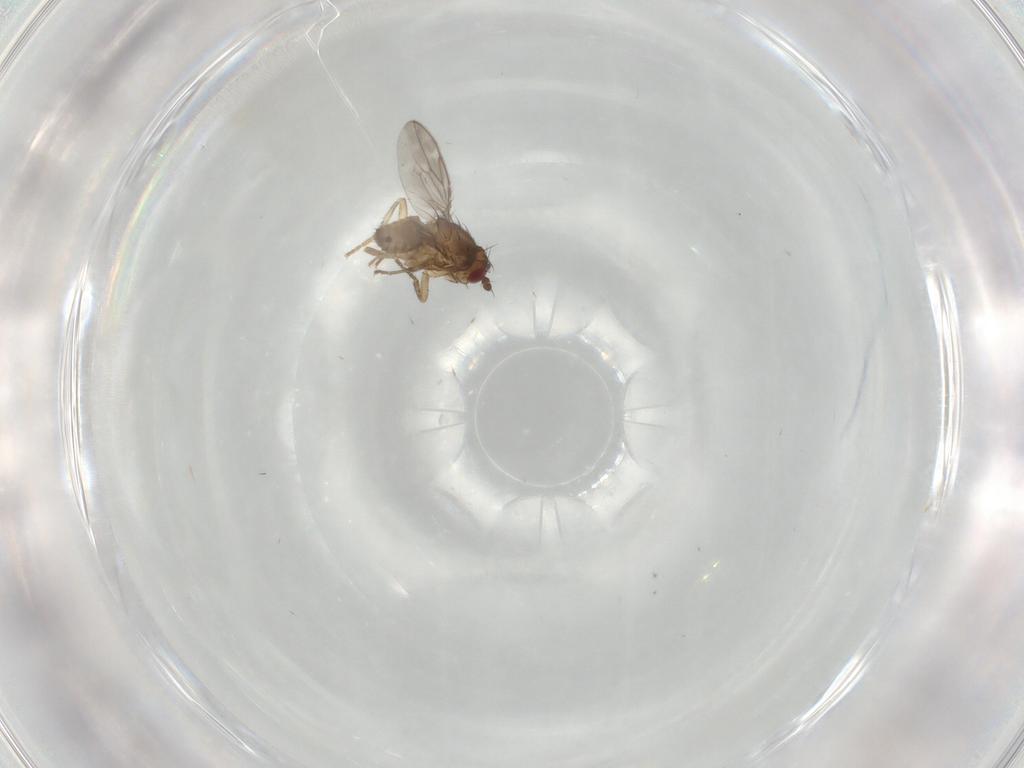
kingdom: Animalia
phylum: Arthropoda
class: Insecta
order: Diptera
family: Sphaeroceridae
